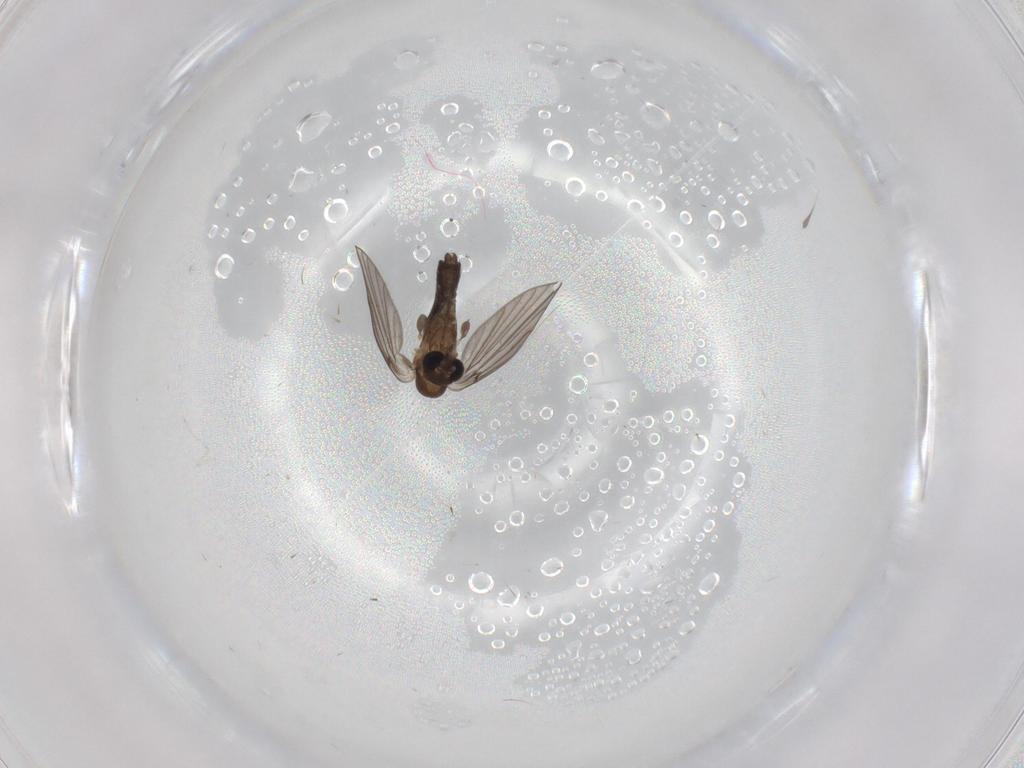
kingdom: Animalia
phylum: Arthropoda
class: Insecta
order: Diptera
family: Cecidomyiidae
